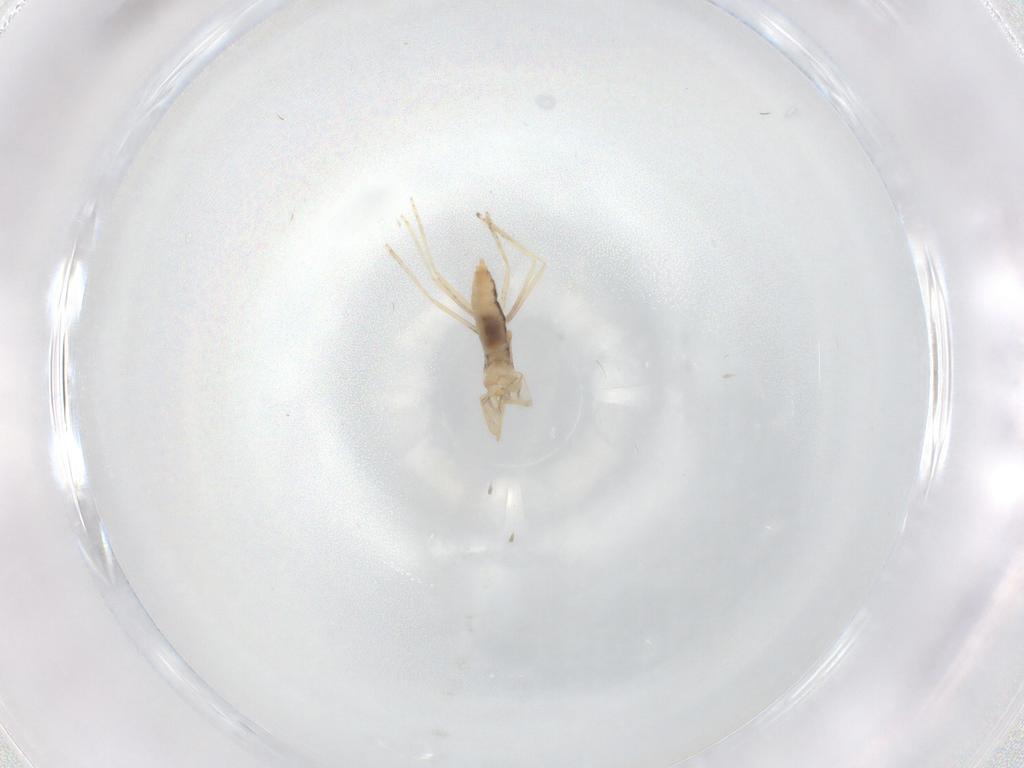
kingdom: Animalia
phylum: Arthropoda
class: Insecta
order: Diptera
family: Cecidomyiidae
